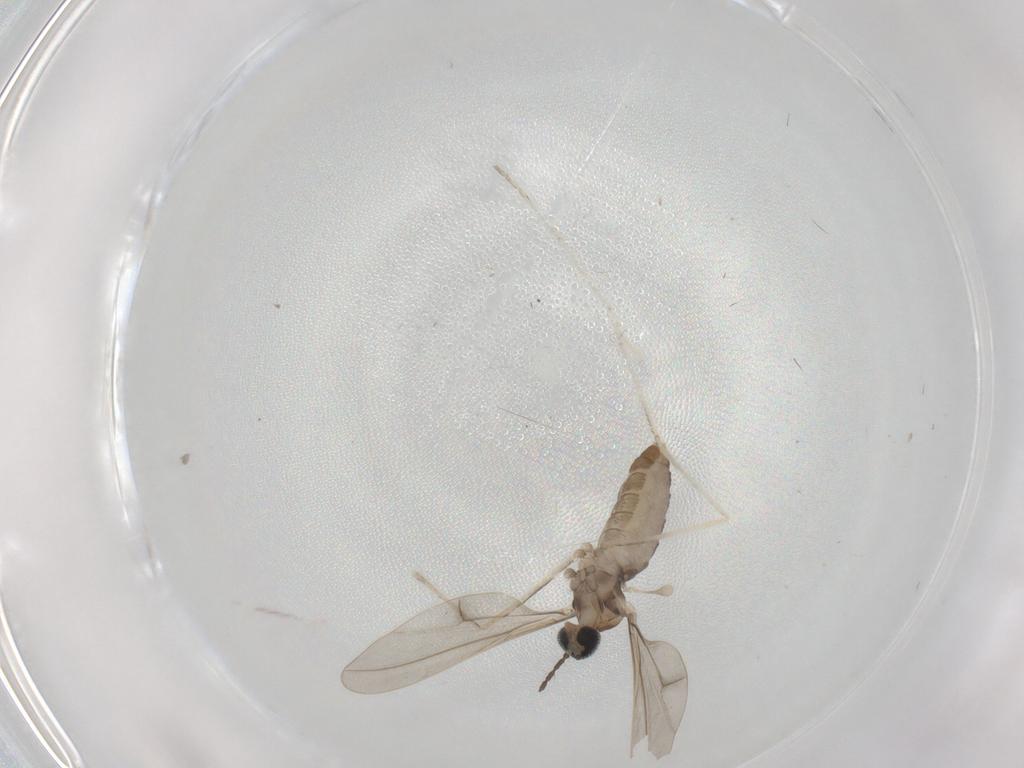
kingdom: Animalia
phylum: Arthropoda
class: Insecta
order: Diptera
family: Cecidomyiidae
